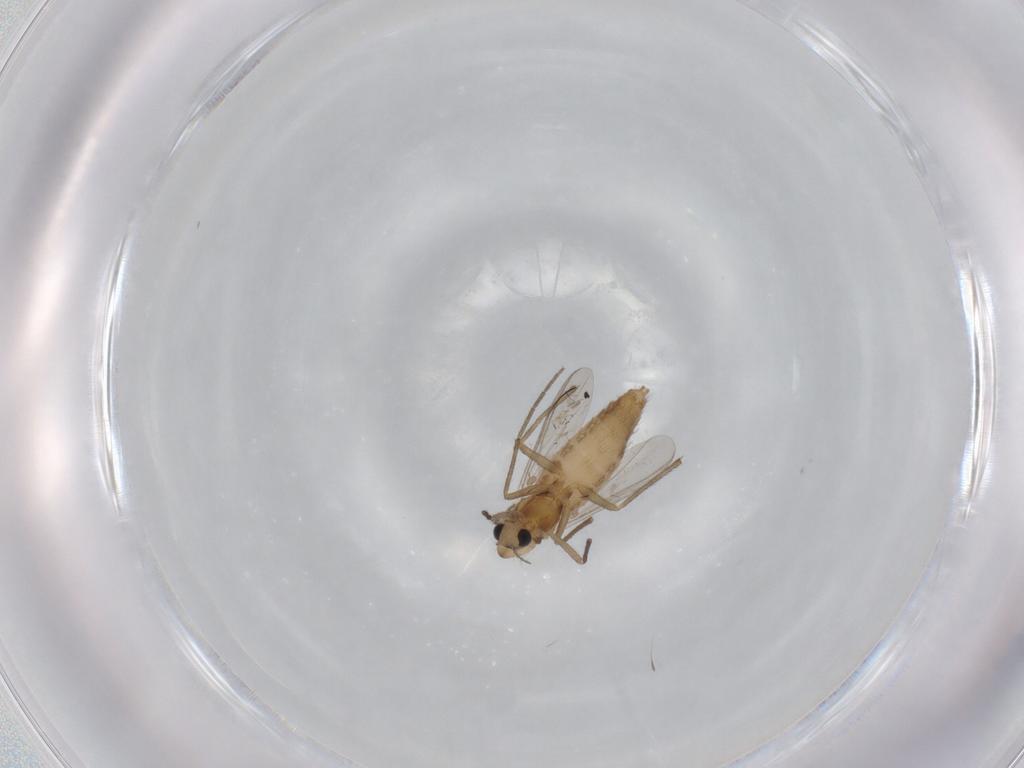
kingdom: Animalia
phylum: Arthropoda
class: Insecta
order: Diptera
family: Chironomidae
